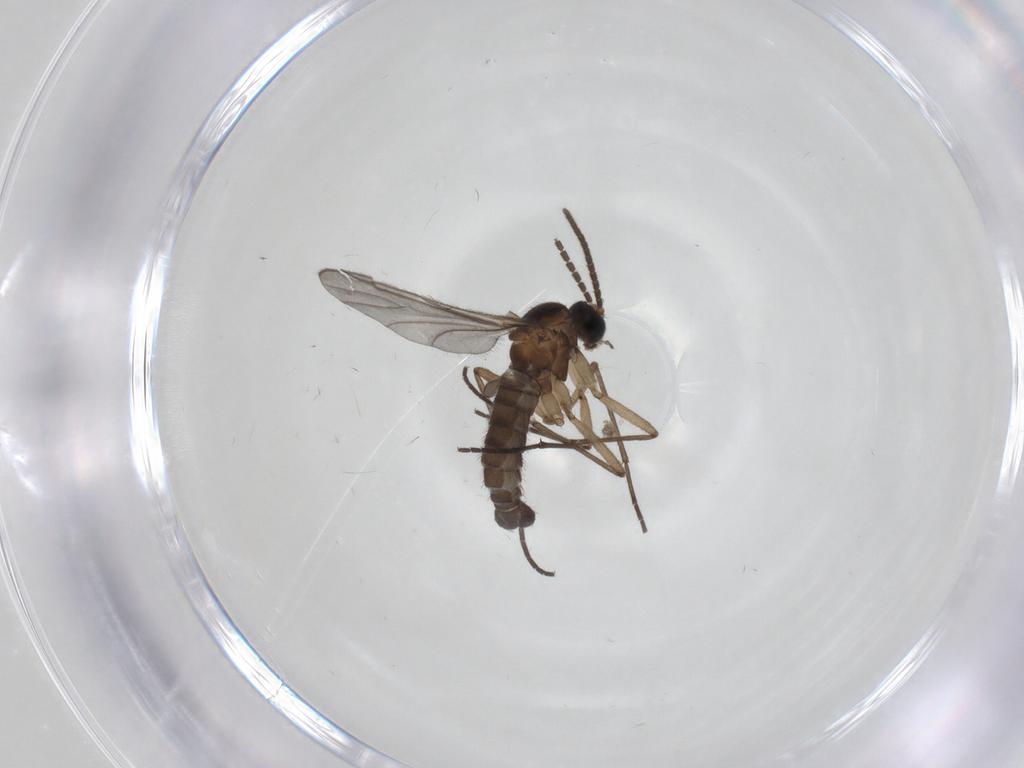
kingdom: Animalia
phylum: Arthropoda
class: Insecta
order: Diptera
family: Sciaridae
